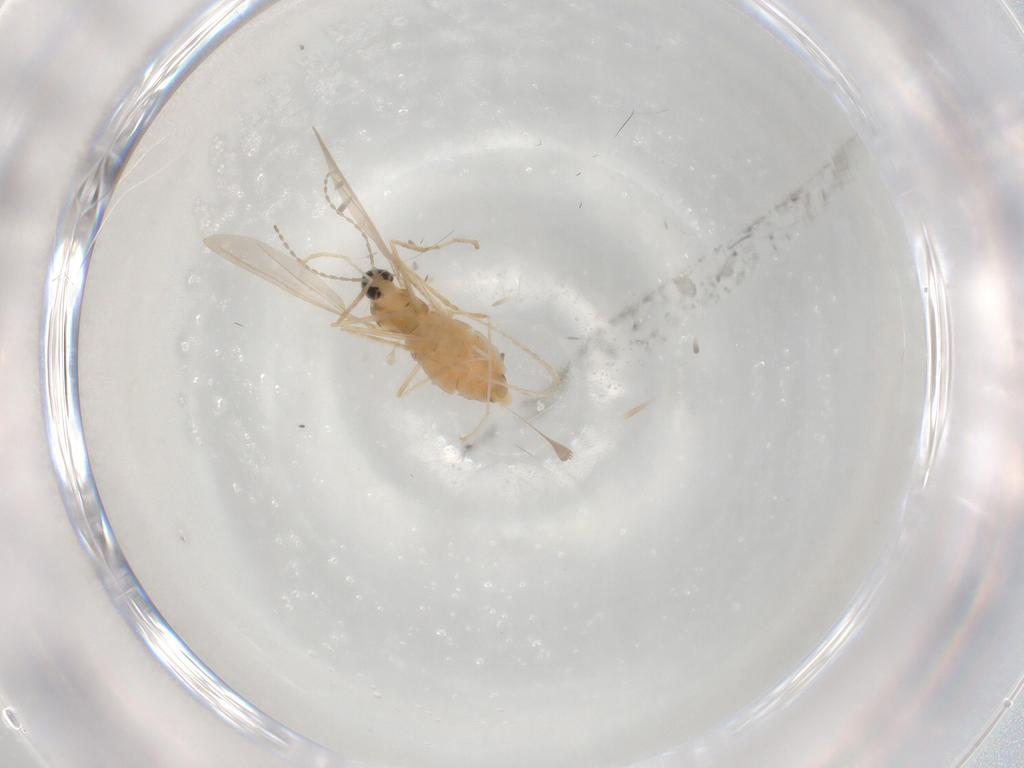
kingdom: Animalia
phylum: Arthropoda
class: Insecta
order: Diptera
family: Cecidomyiidae
